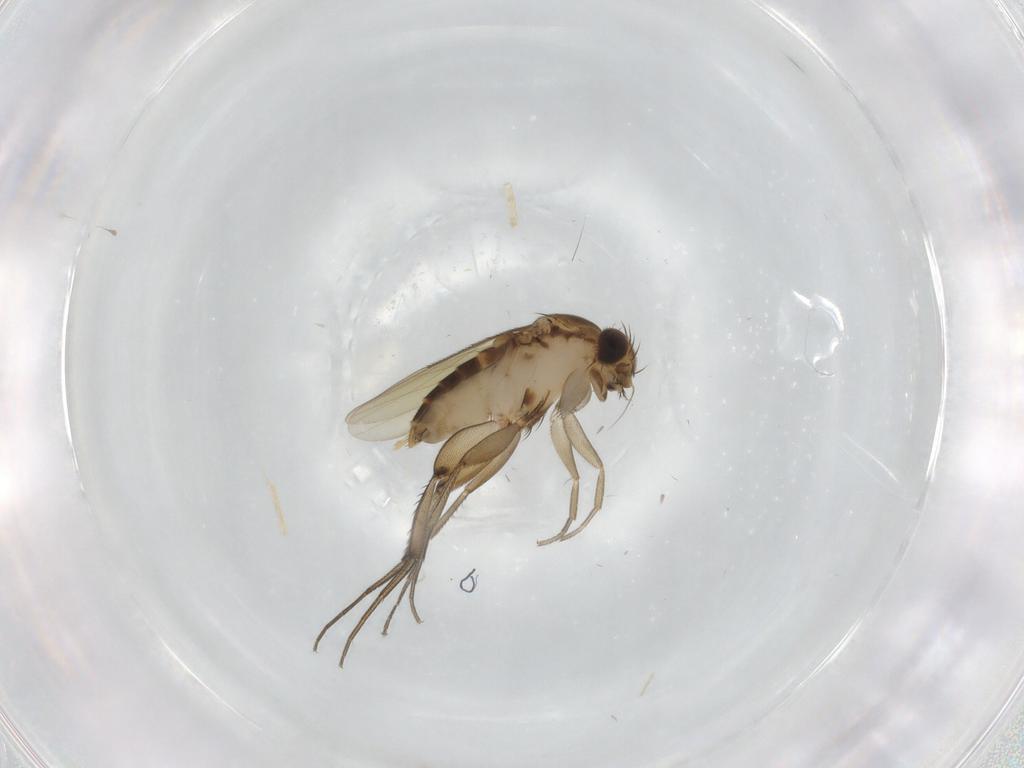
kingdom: Animalia
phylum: Arthropoda
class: Insecta
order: Diptera
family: Phoridae
